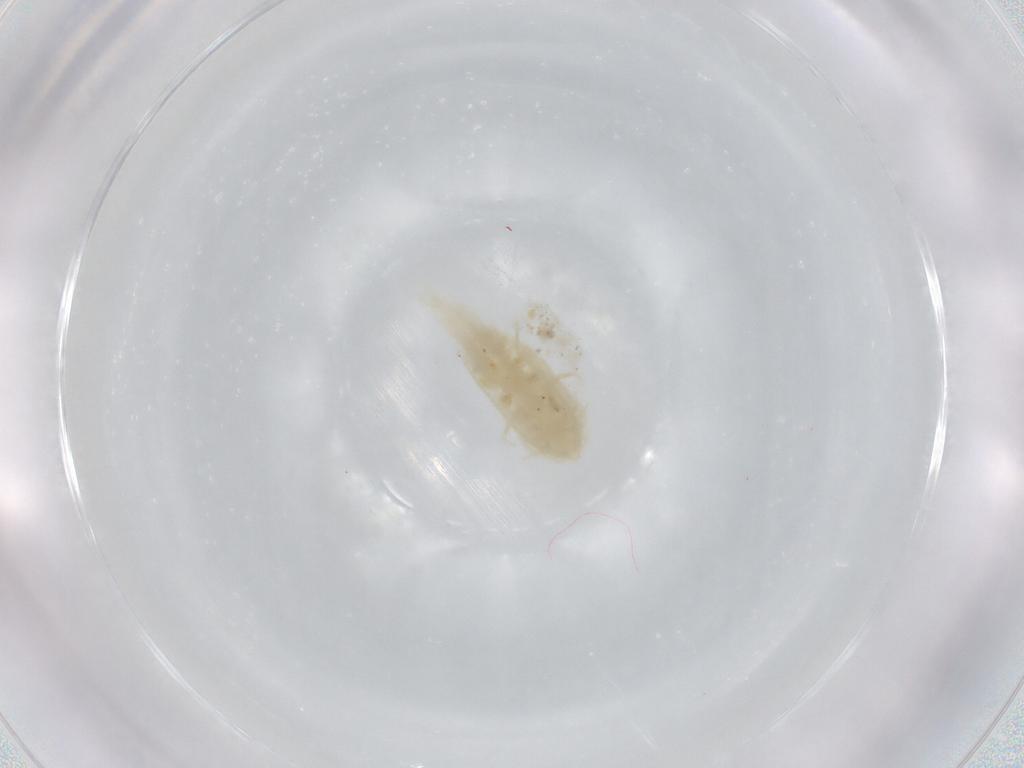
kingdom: Animalia
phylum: Arthropoda
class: Copepoda
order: Calanoida
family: Diaptomidae
